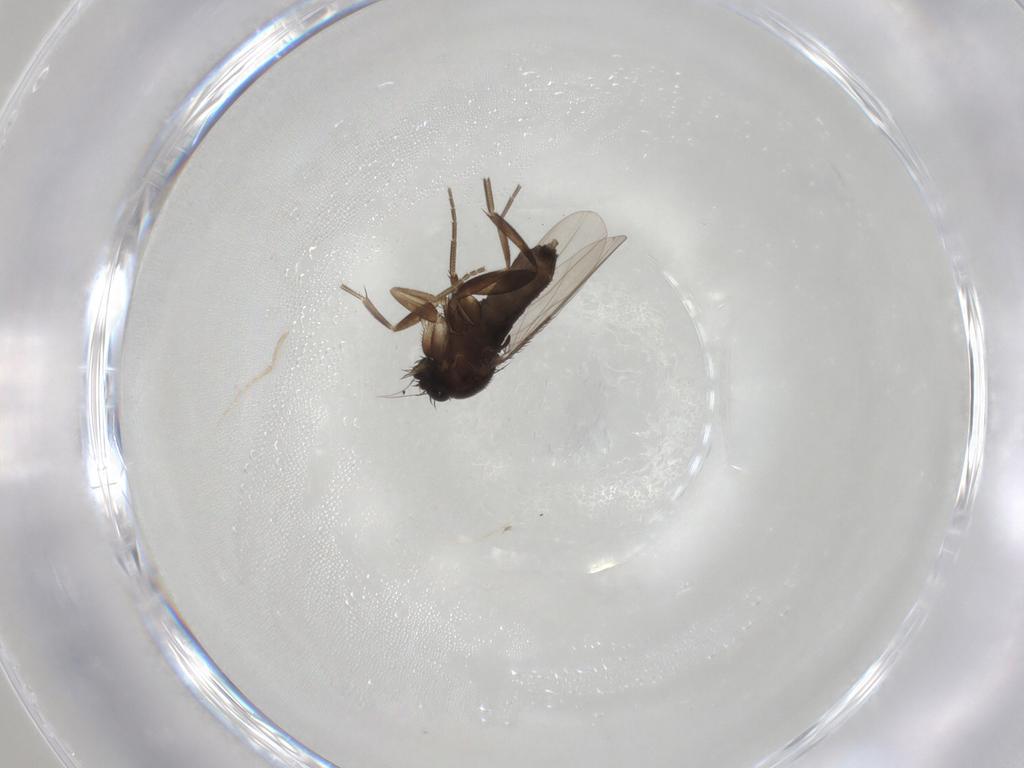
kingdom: Animalia
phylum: Arthropoda
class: Insecta
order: Diptera
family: Phoridae
